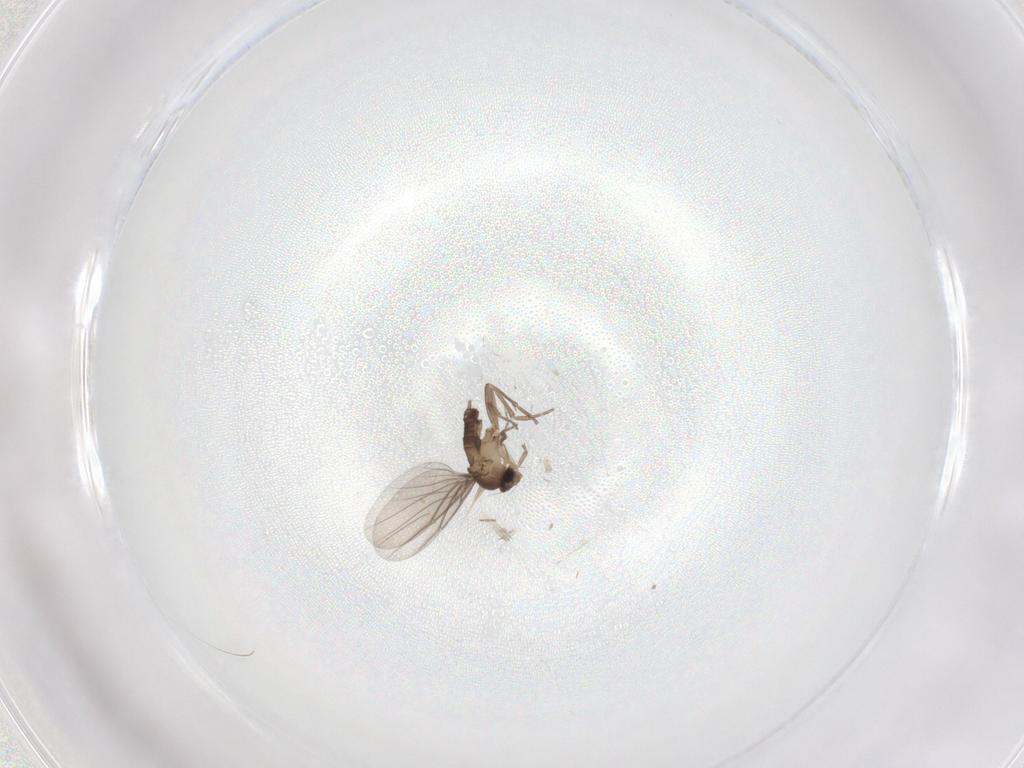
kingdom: Animalia
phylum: Arthropoda
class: Insecta
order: Diptera
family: Phoridae
